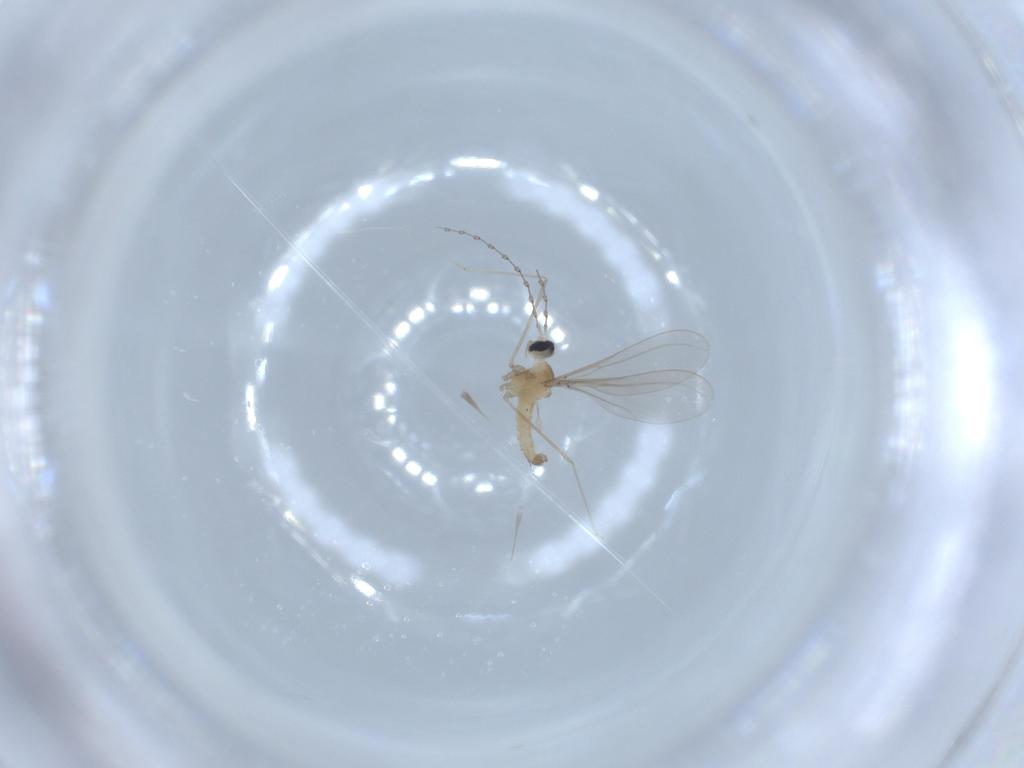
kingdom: Animalia
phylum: Arthropoda
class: Insecta
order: Diptera
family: Cecidomyiidae
